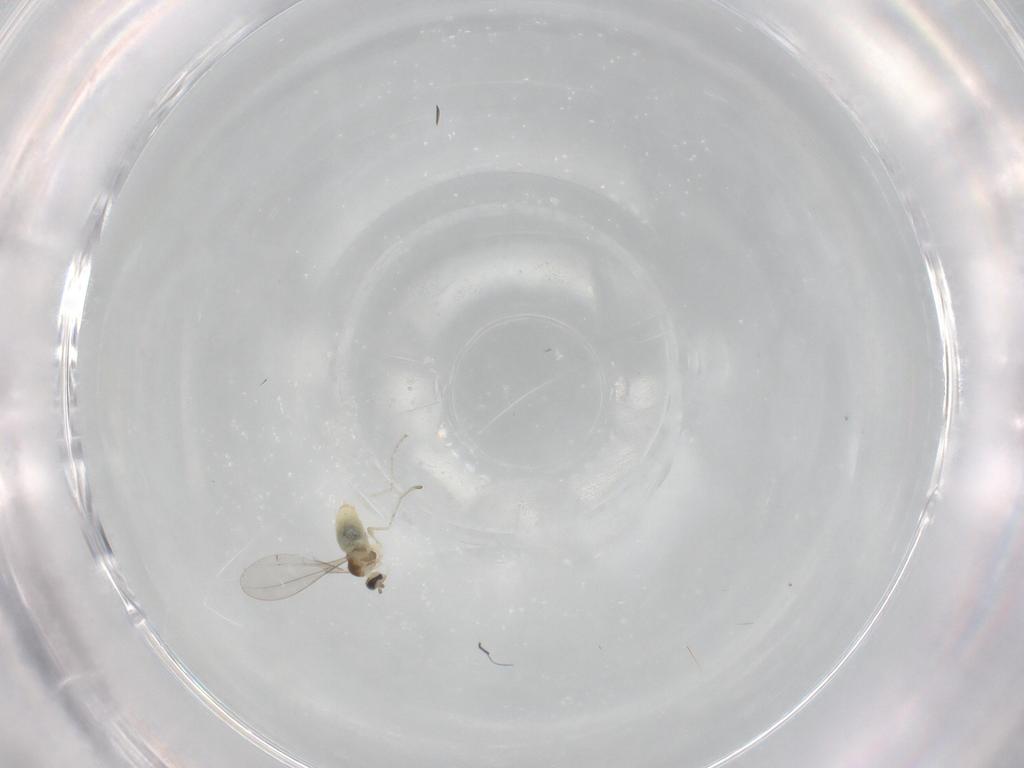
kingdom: Animalia
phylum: Arthropoda
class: Insecta
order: Diptera
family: Cecidomyiidae
